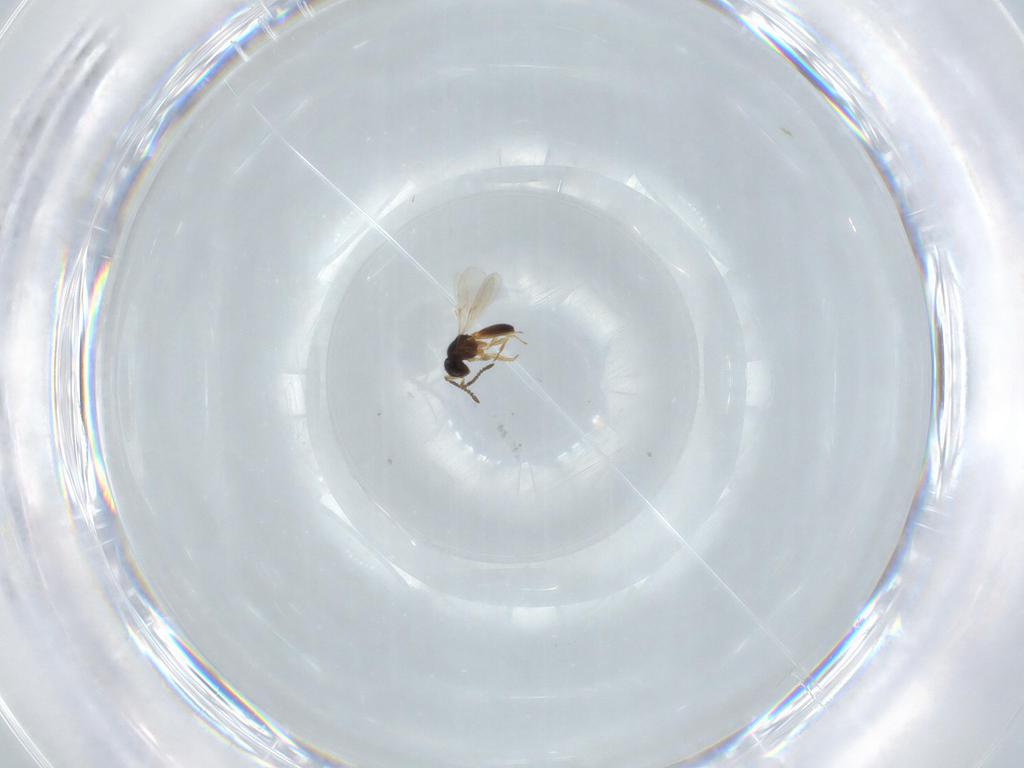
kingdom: Animalia
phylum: Arthropoda
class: Insecta
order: Hymenoptera
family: Scelionidae
